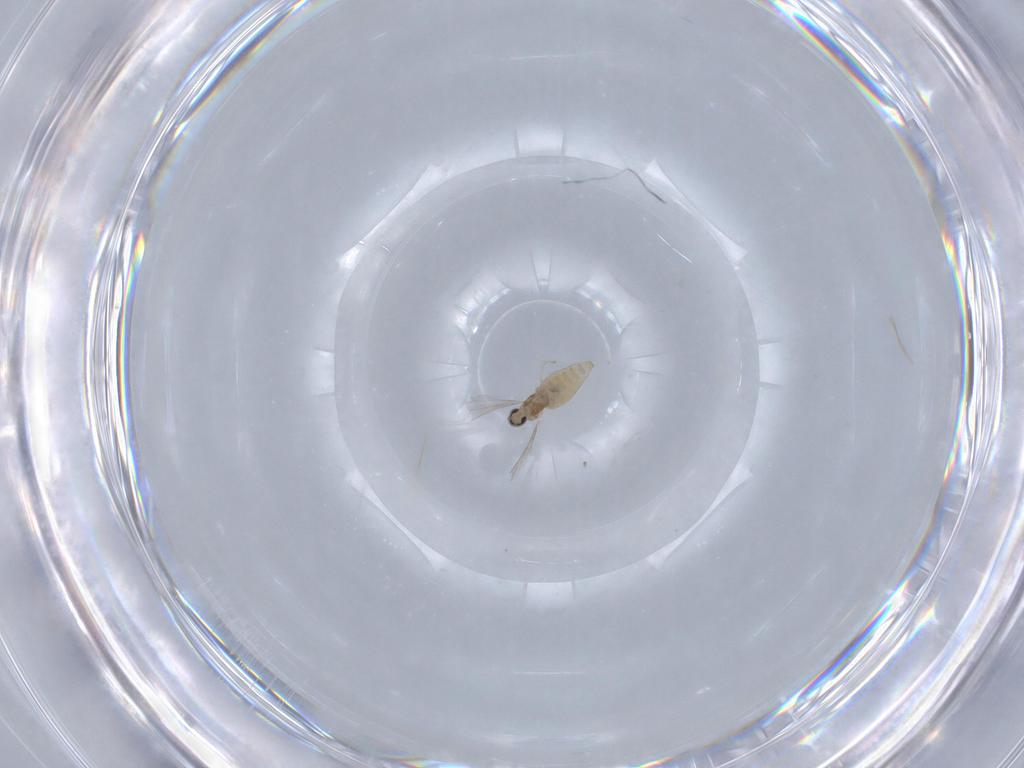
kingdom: Animalia
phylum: Arthropoda
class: Insecta
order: Diptera
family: Cecidomyiidae
